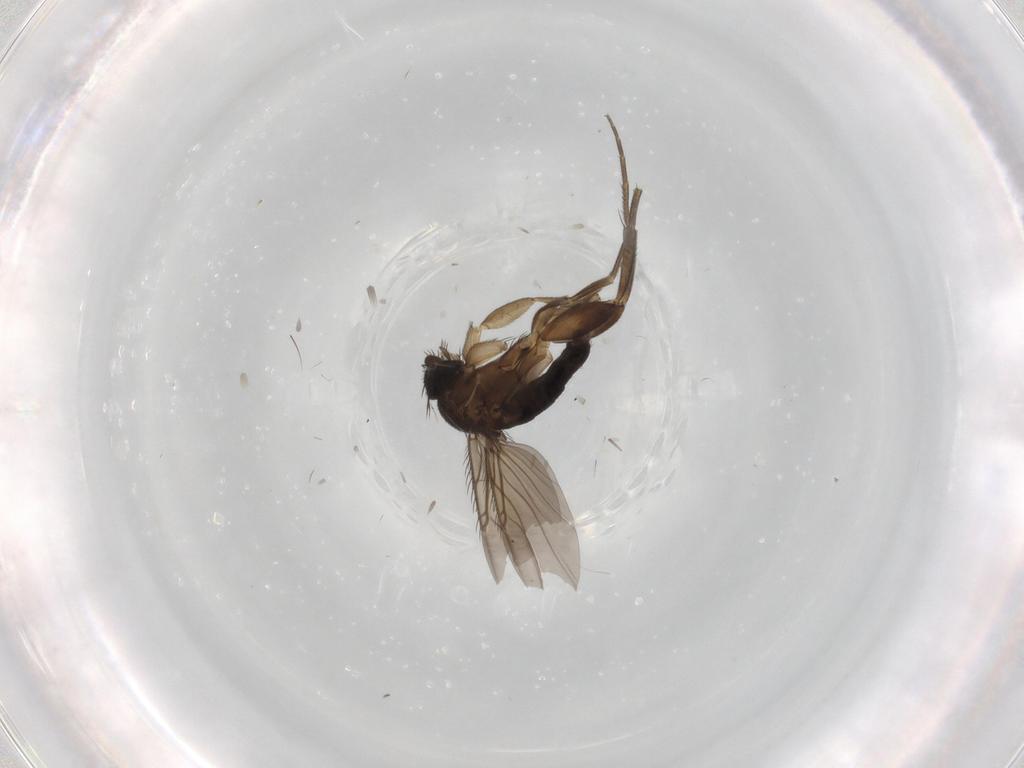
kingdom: Animalia
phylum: Arthropoda
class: Insecta
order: Diptera
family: Phoridae
